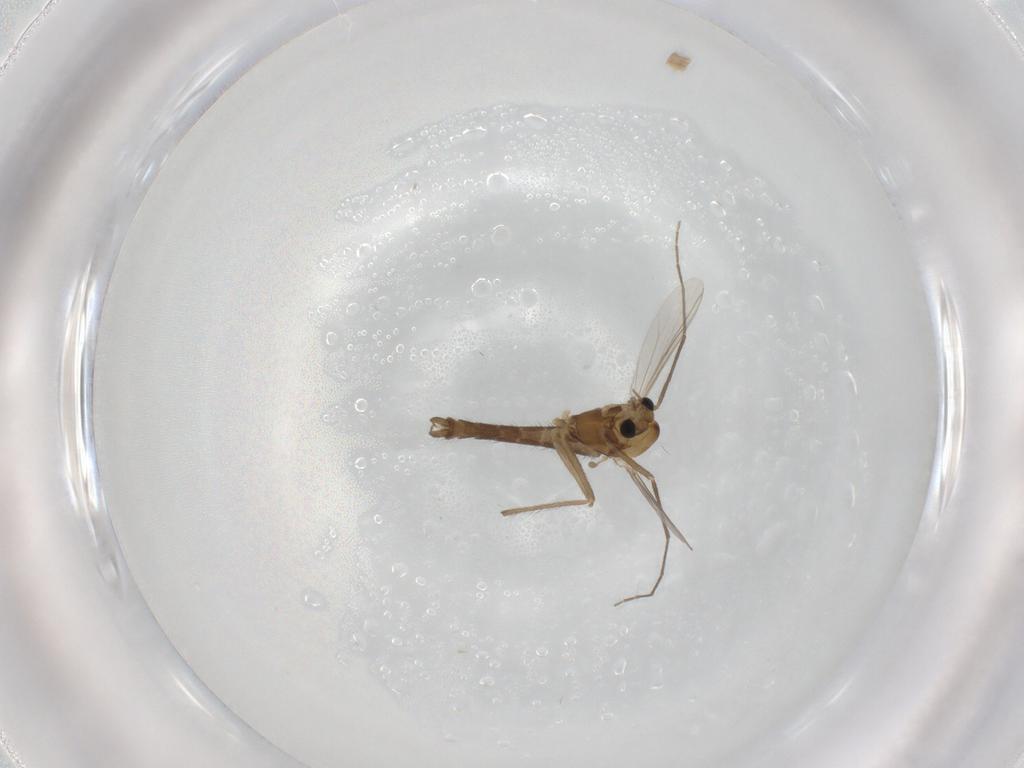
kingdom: Animalia
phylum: Arthropoda
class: Insecta
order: Diptera
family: Chironomidae
